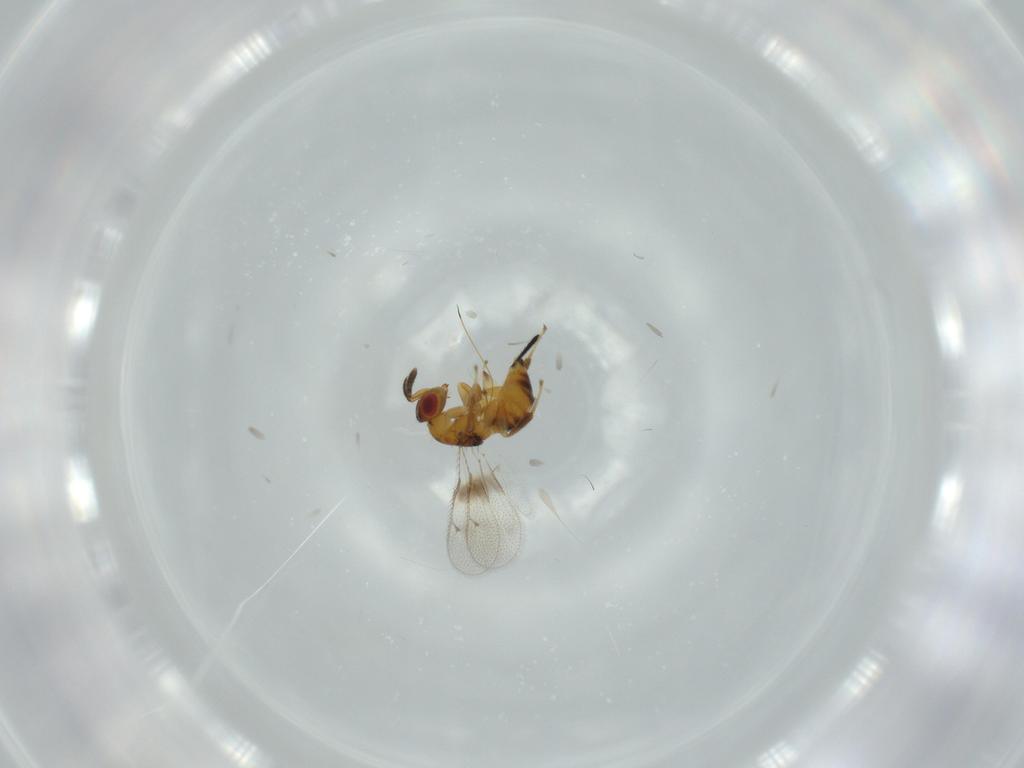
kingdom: Animalia
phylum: Arthropoda
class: Insecta
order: Hymenoptera
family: Torymidae
